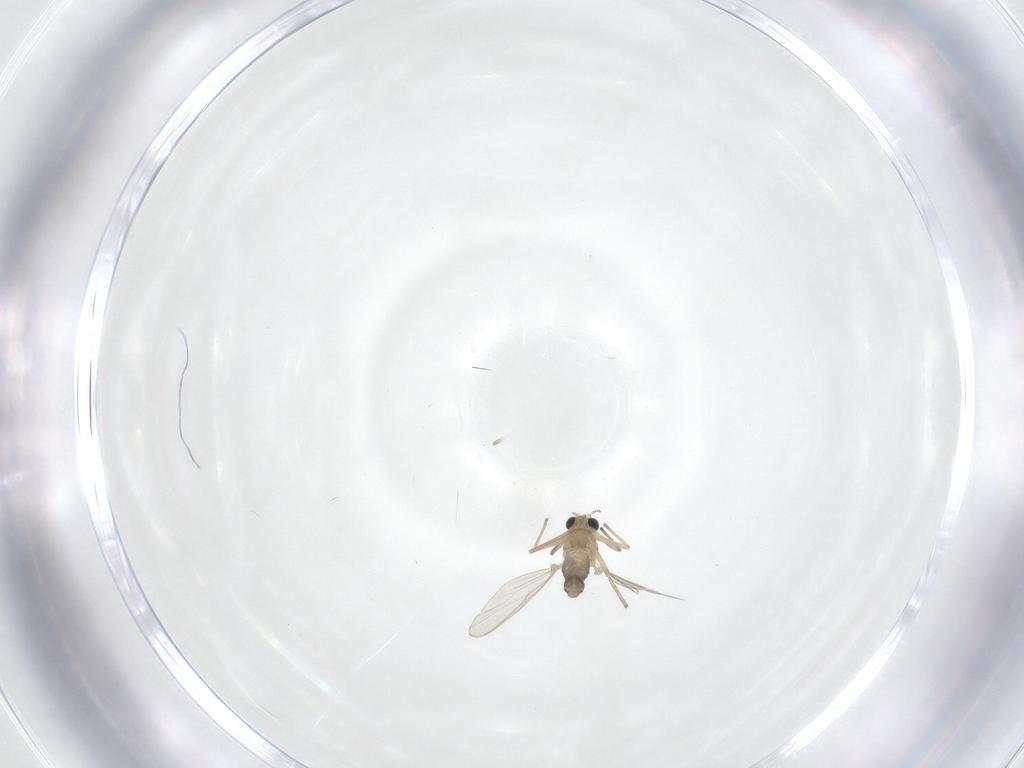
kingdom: Animalia
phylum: Arthropoda
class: Insecta
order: Diptera
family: Chironomidae
